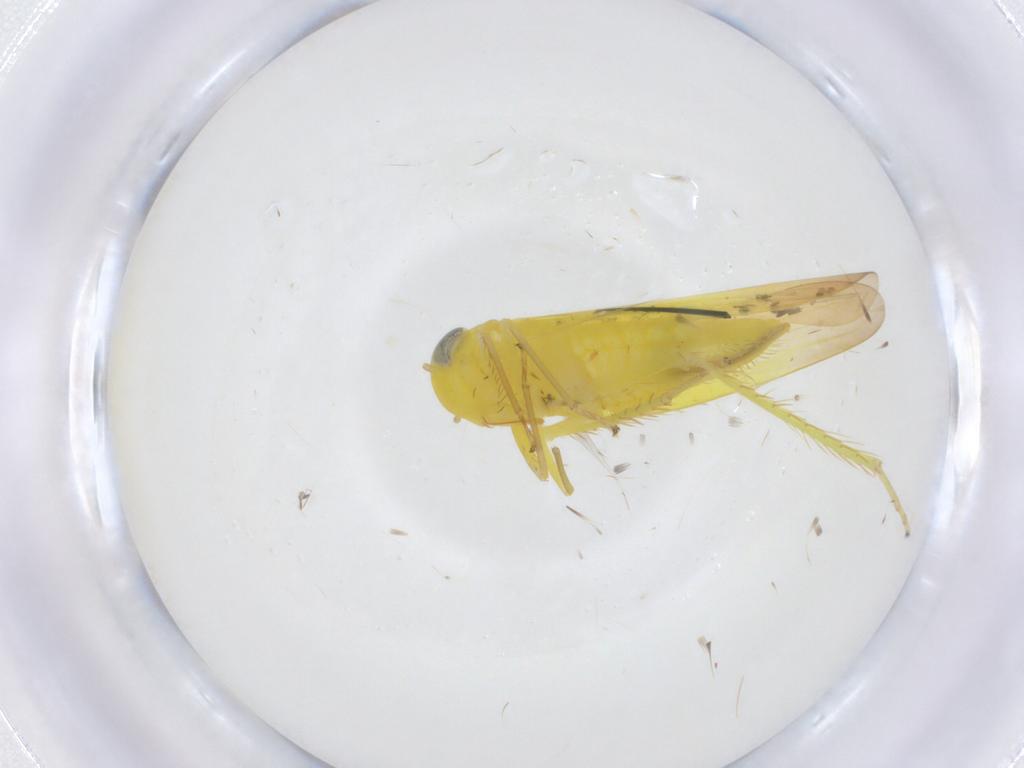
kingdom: Animalia
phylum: Arthropoda
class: Insecta
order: Hemiptera
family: Cicadellidae
